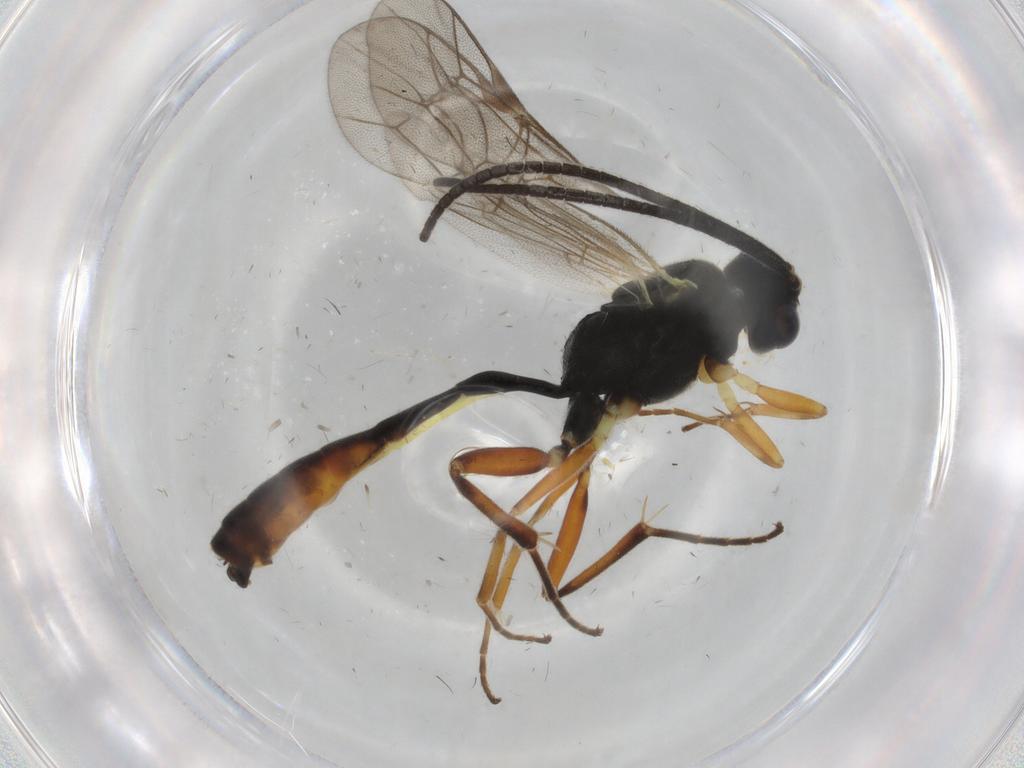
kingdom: Animalia
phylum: Arthropoda
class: Insecta
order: Hymenoptera
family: Ichneumonidae
